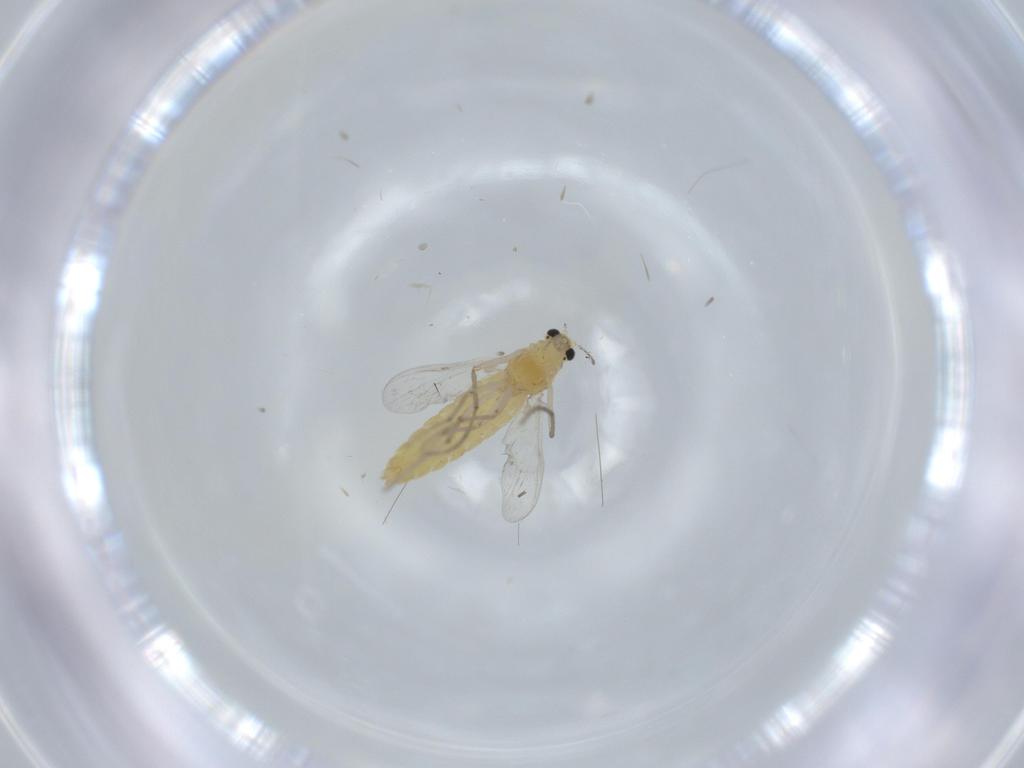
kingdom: Animalia
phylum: Arthropoda
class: Insecta
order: Diptera
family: Chironomidae
